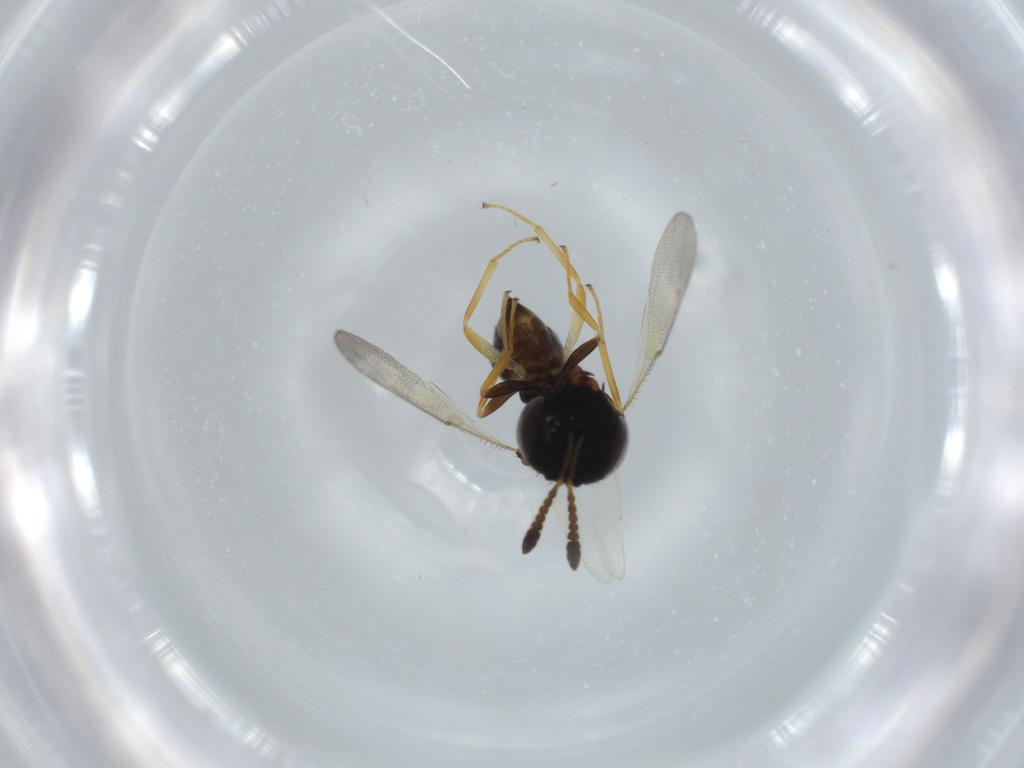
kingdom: Animalia
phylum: Arthropoda
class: Insecta
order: Hymenoptera
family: Pteromalidae
